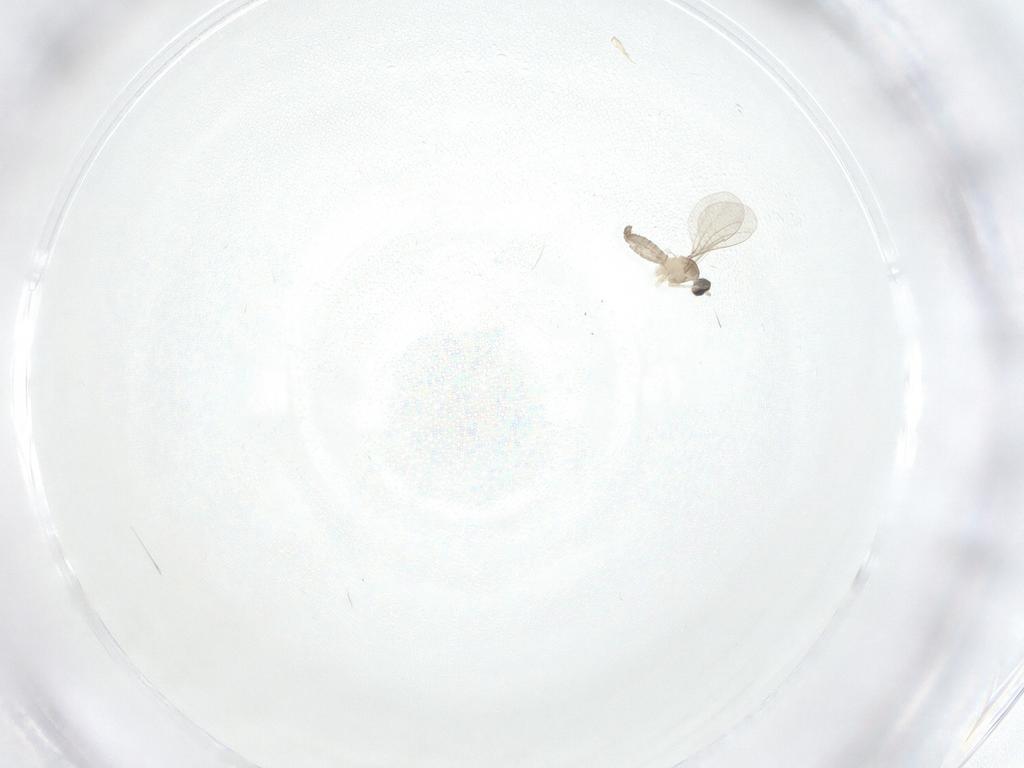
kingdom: Animalia
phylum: Arthropoda
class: Insecta
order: Diptera
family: Cecidomyiidae
